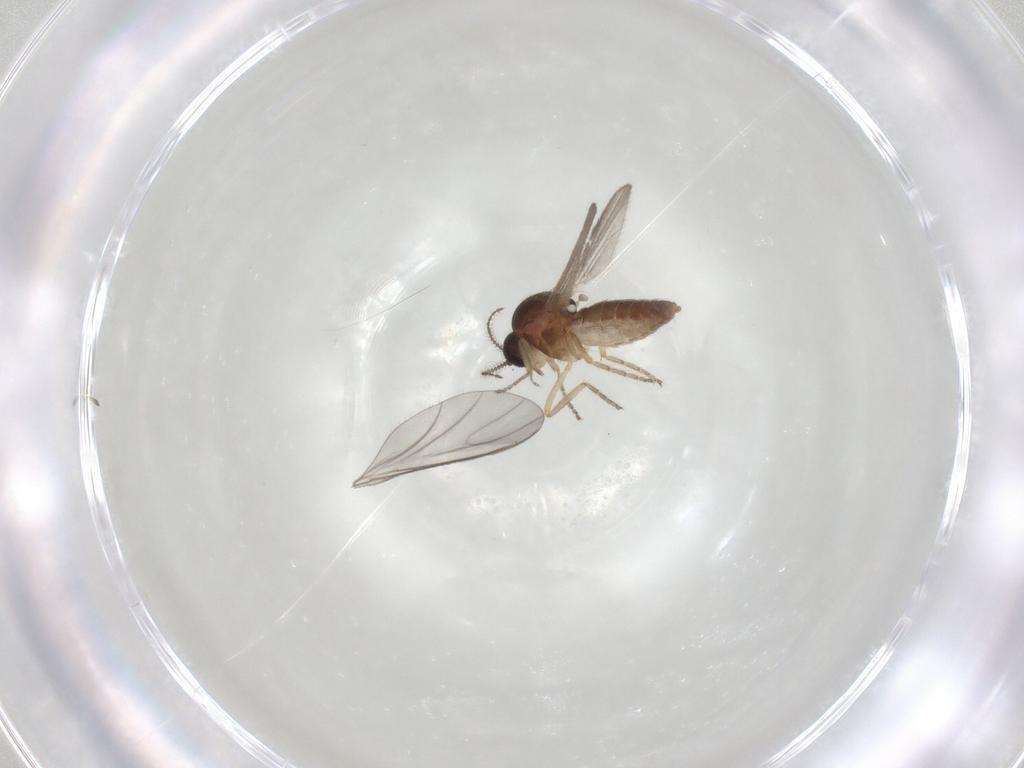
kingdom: Animalia
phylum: Arthropoda
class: Insecta
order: Diptera
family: Ceratopogonidae
